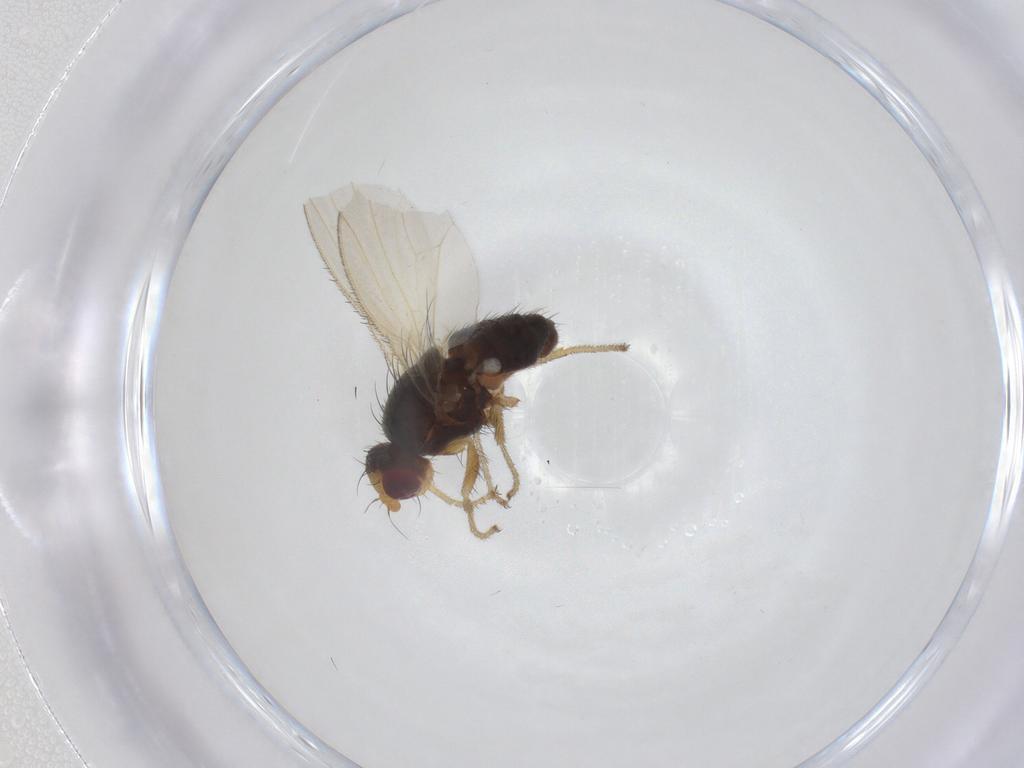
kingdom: Animalia
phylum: Arthropoda
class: Insecta
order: Diptera
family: Heleomyzidae
